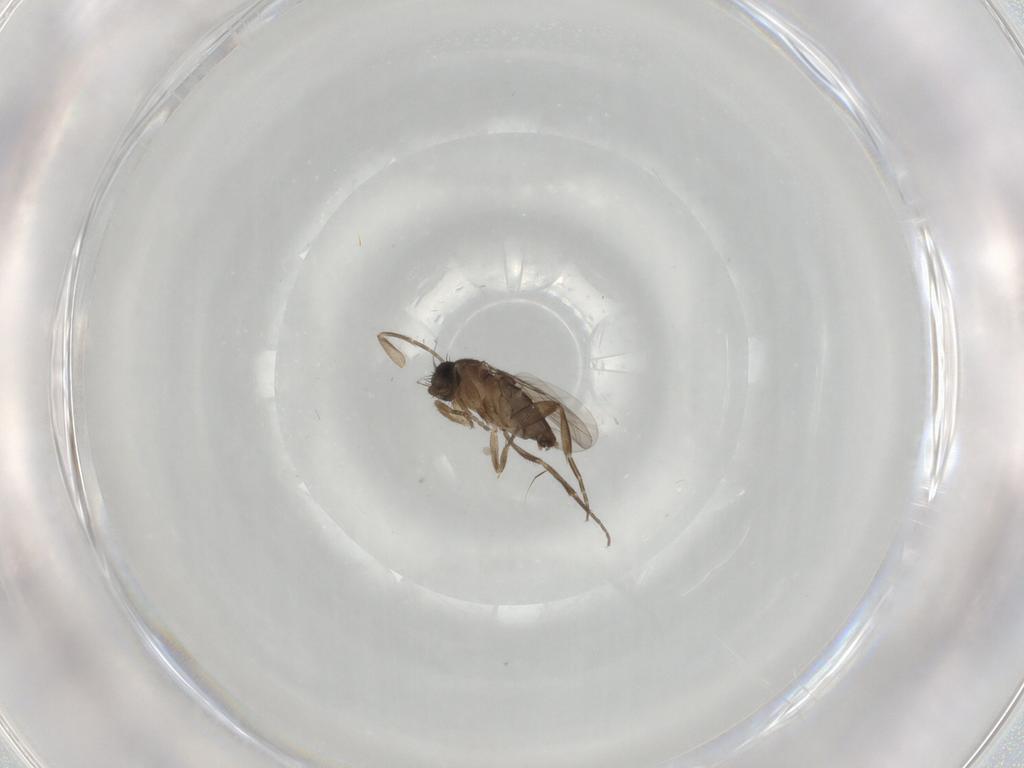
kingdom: Animalia
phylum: Arthropoda
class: Insecta
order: Diptera
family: Phoridae
